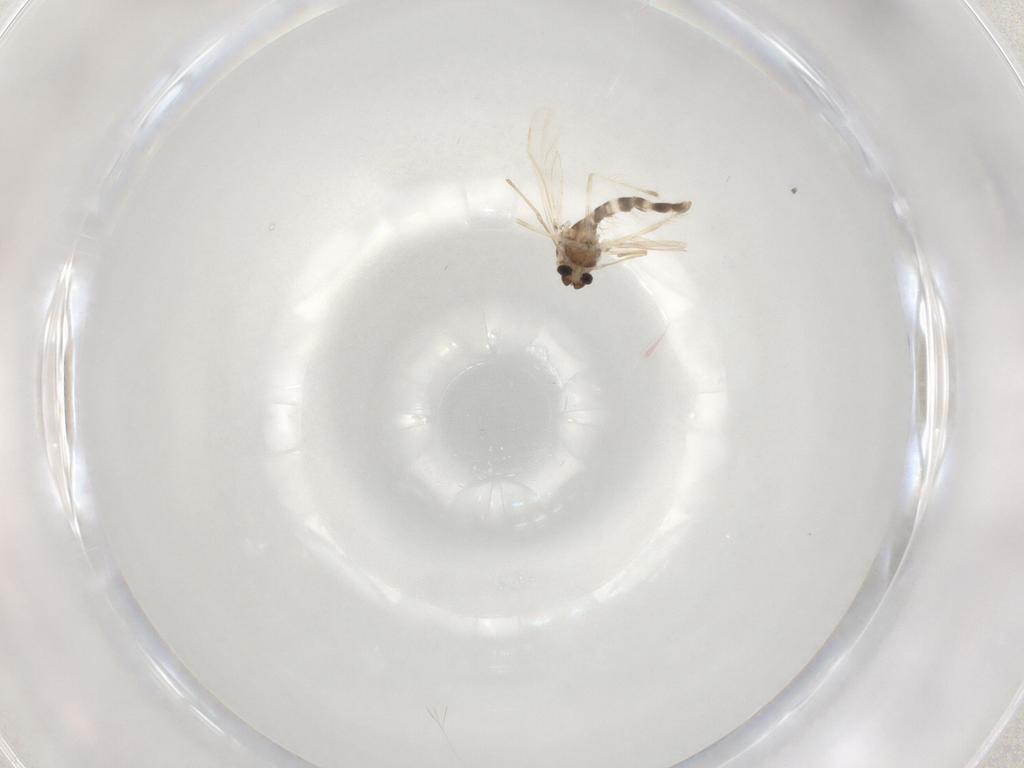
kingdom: Animalia
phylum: Arthropoda
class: Insecta
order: Diptera
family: Chironomidae
